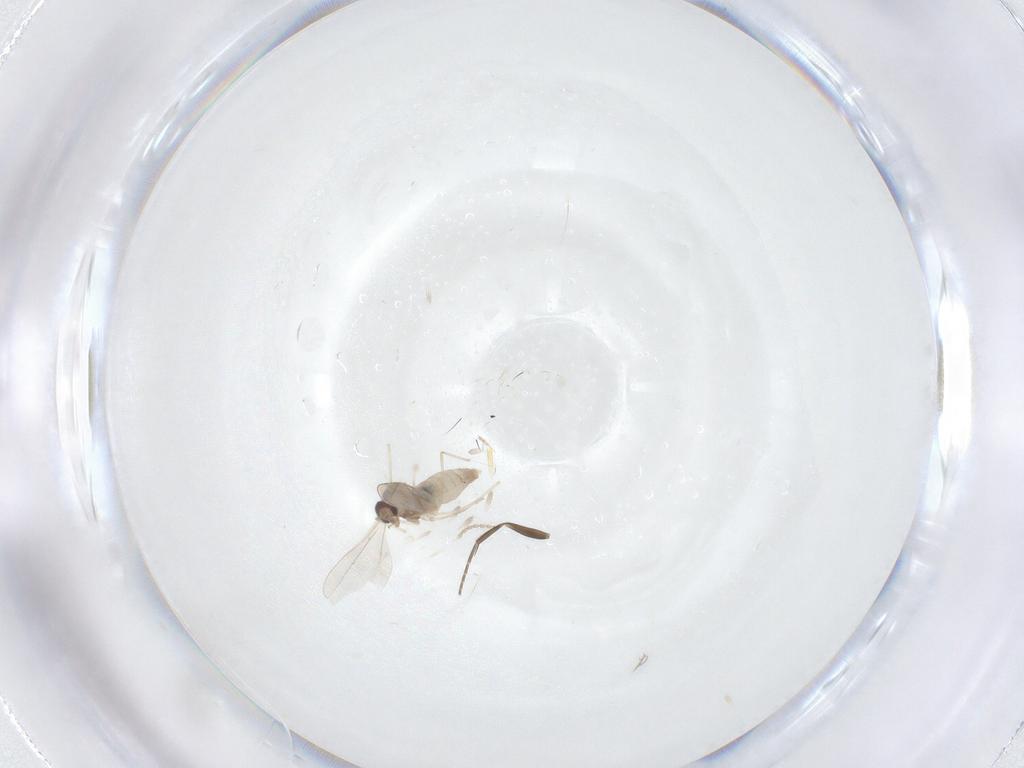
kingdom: Animalia
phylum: Arthropoda
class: Insecta
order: Diptera
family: Cecidomyiidae
